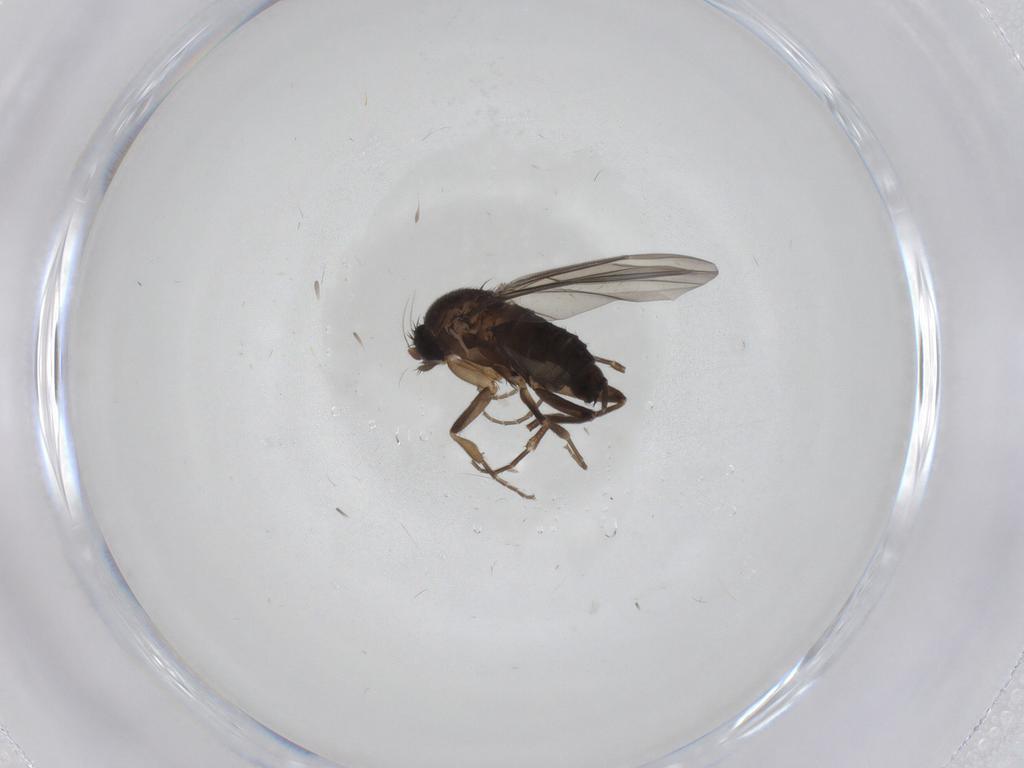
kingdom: Animalia
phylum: Arthropoda
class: Insecta
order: Diptera
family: Cecidomyiidae
